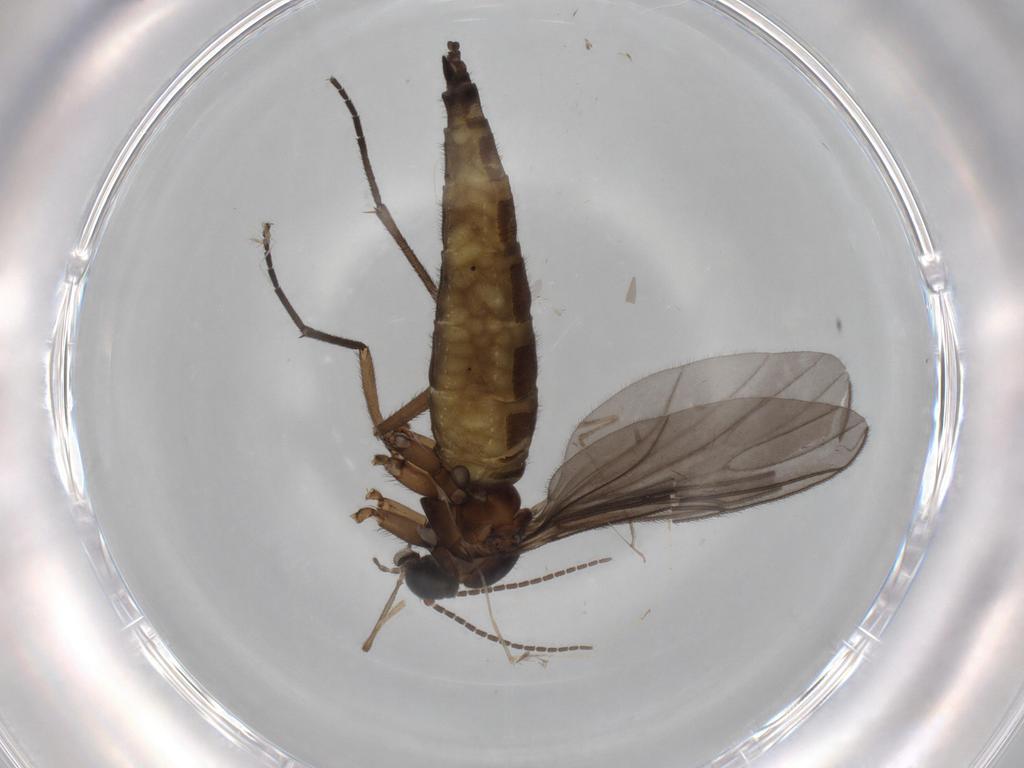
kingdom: Animalia
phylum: Arthropoda
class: Insecta
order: Diptera
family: Sciaridae
